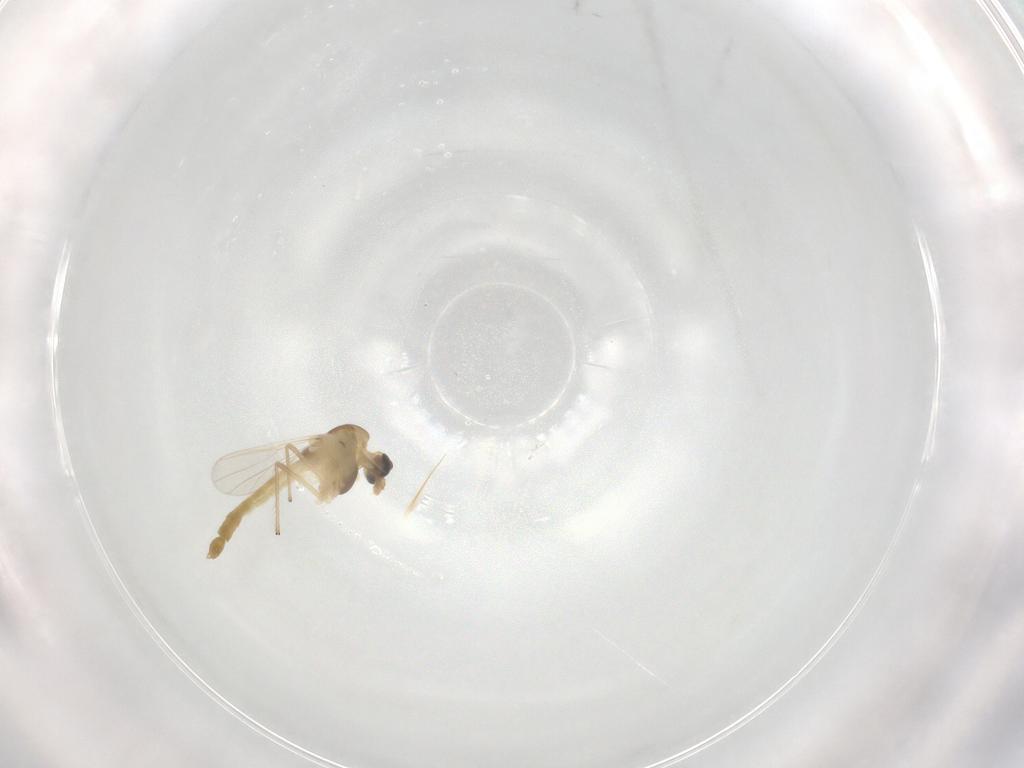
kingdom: Animalia
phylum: Arthropoda
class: Insecta
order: Diptera
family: Chironomidae
